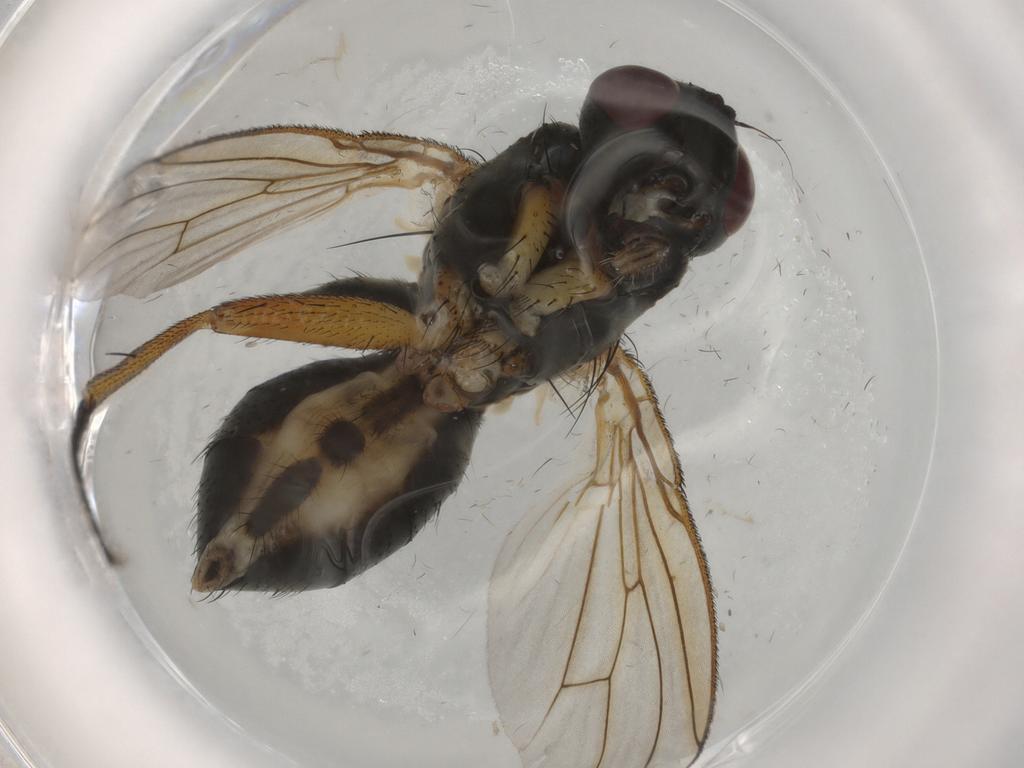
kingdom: Animalia
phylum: Arthropoda
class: Insecta
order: Diptera
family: Muscidae
